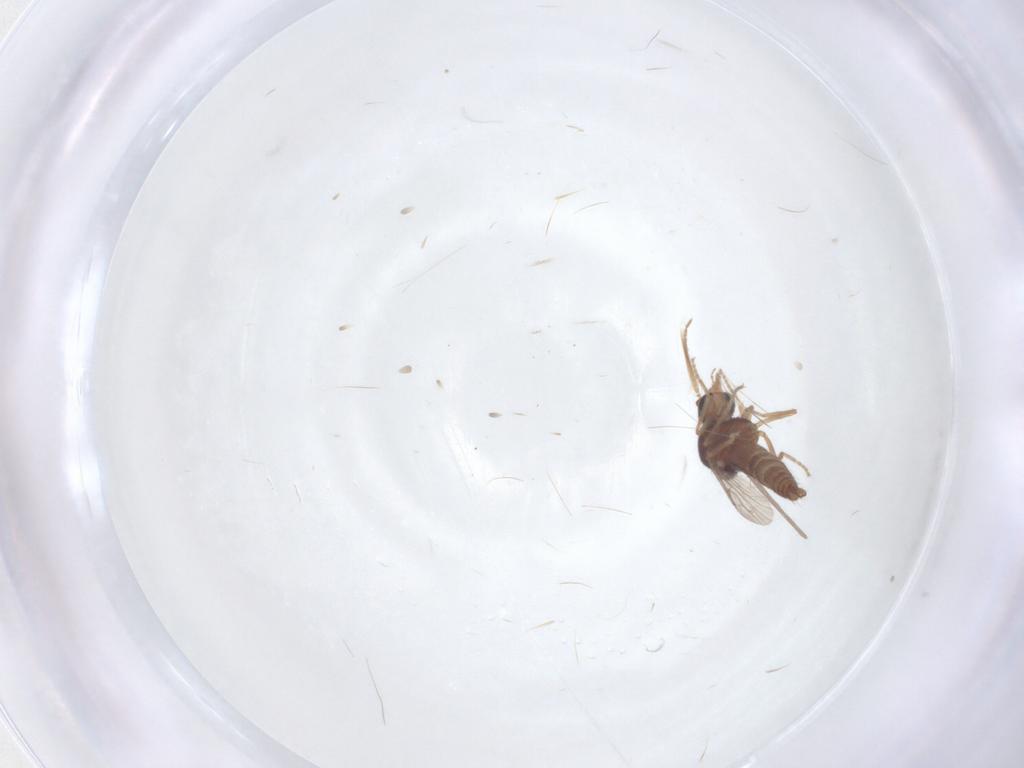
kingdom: Animalia
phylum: Arthropoda
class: Insecta
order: Diptera
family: Ceratopogonidae
